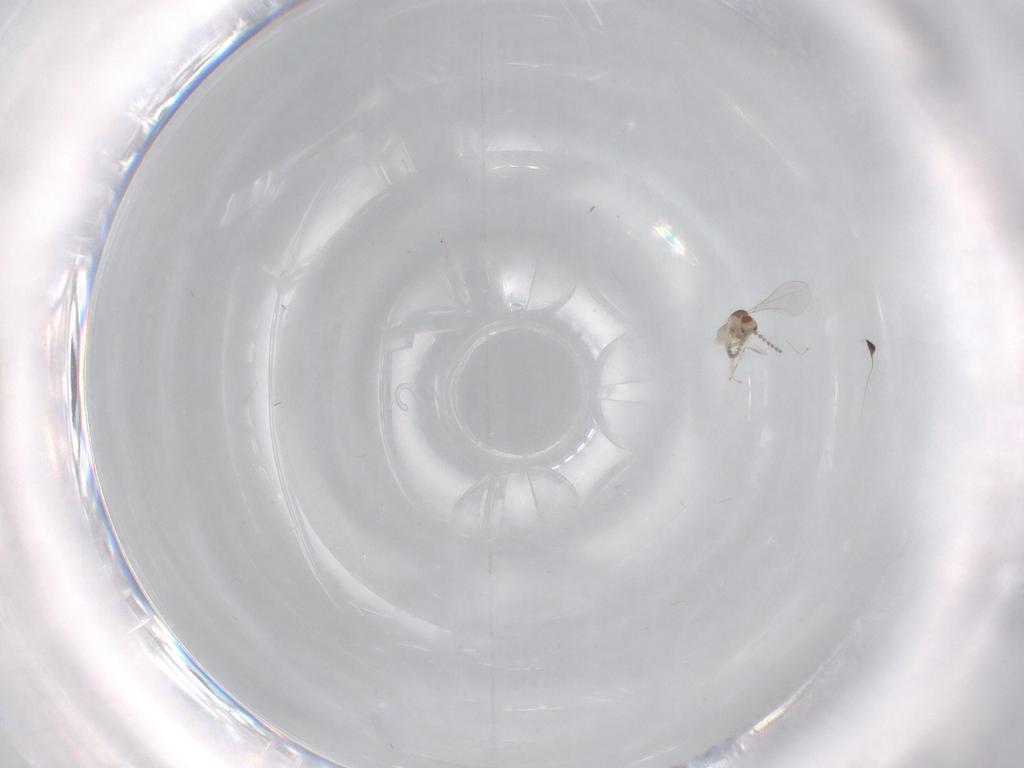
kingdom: Animalia
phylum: Arthropoda
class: Insecta
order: Diptera
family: Cecidomyiidae
